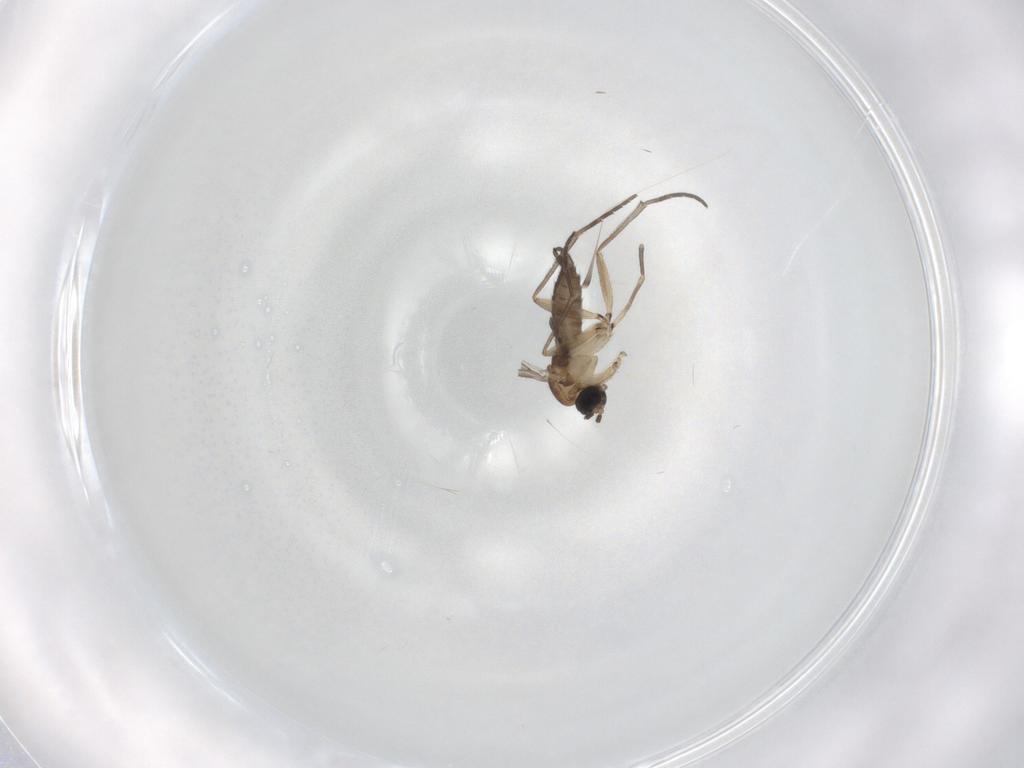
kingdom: Animalia
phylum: Arthropoda
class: Insecta
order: Diptera
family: Sciaridae
